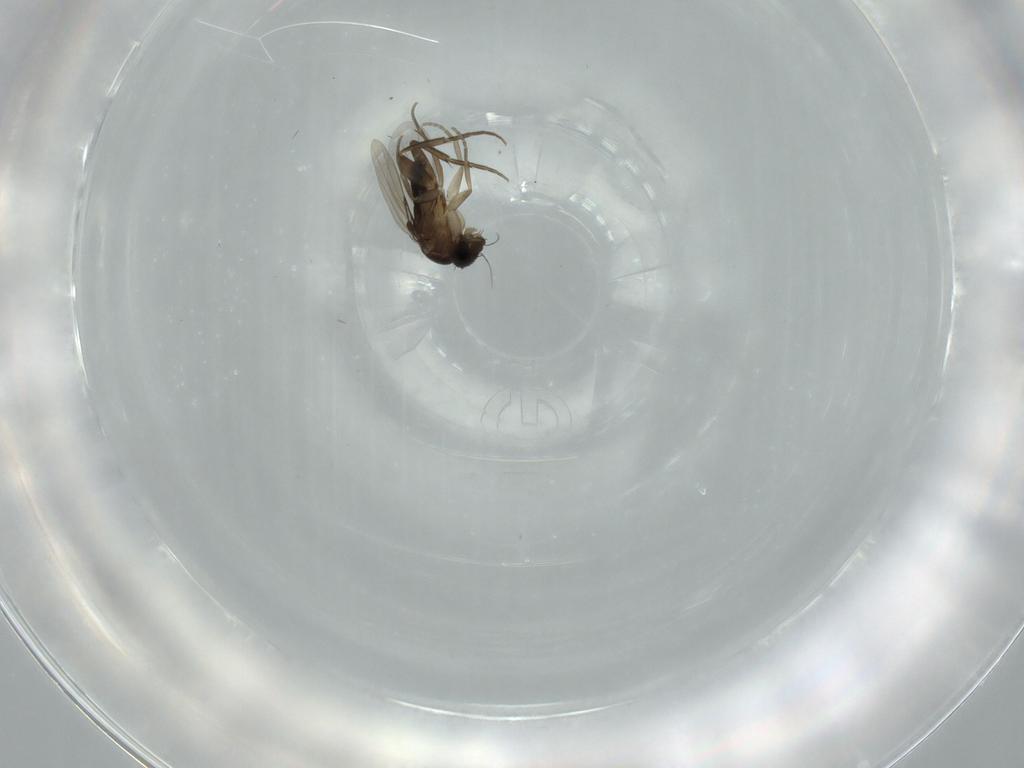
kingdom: Animalia
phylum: Arthropoda
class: Insecta
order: Diptera
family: Phoridae
